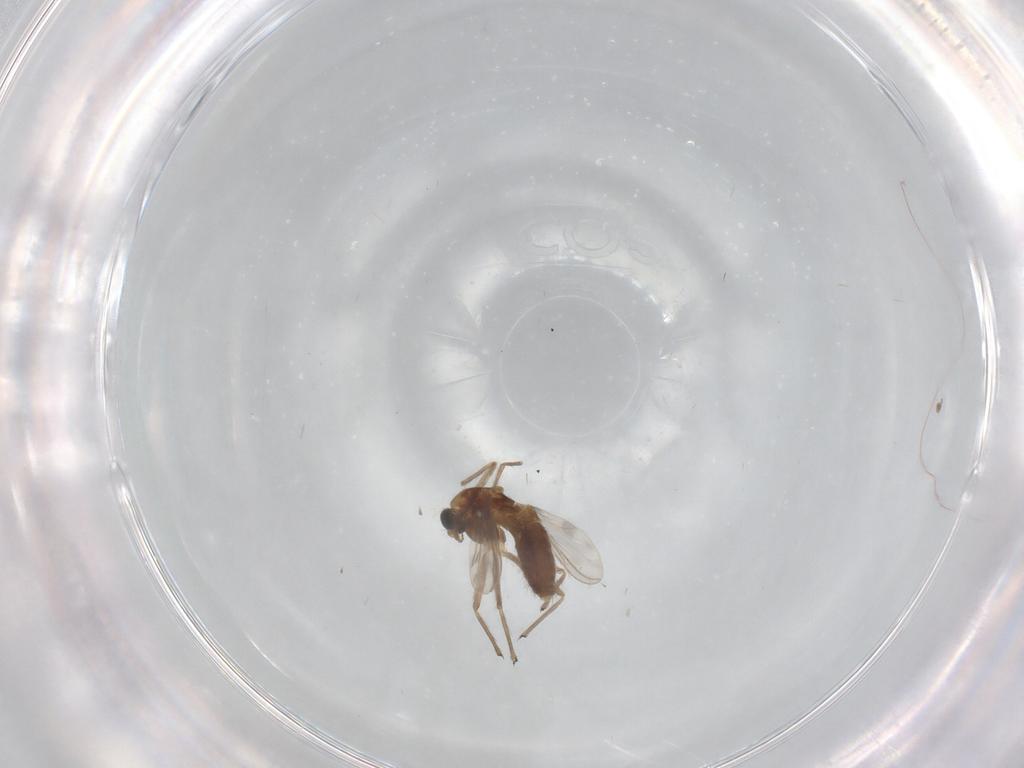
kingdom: Animalia
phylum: Arthropoda
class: Insecta
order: Diptera
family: Chironomidae
